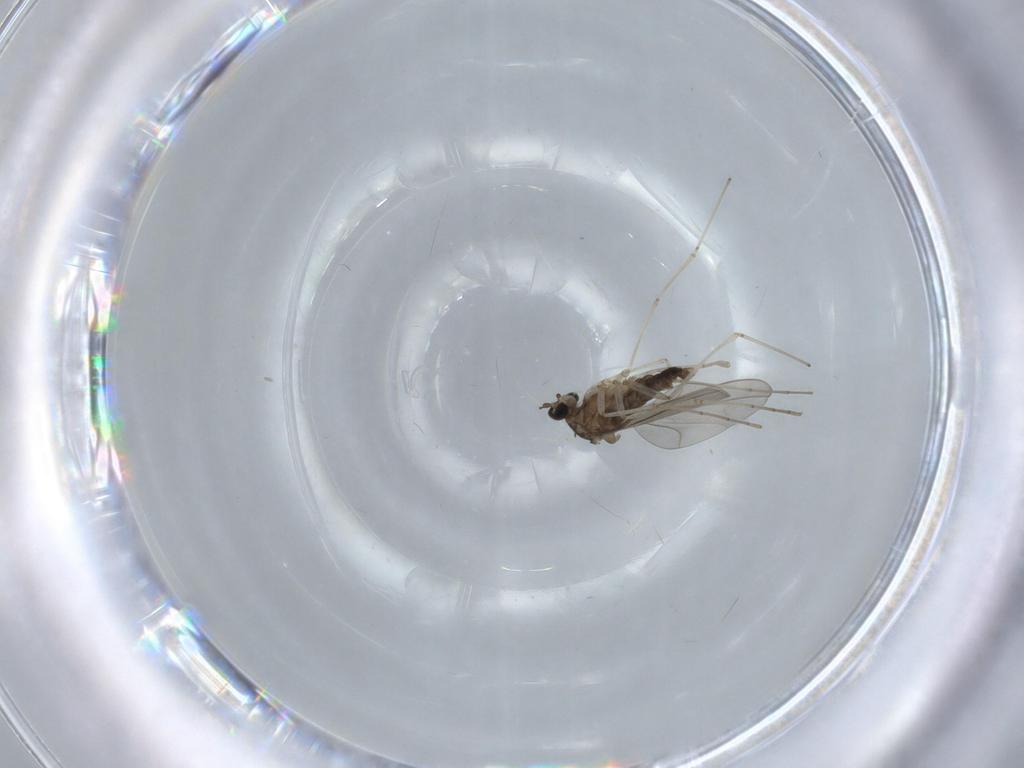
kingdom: Animalia
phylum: Arthropoda
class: Insecta
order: Diptera
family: Cecidomyiidae
